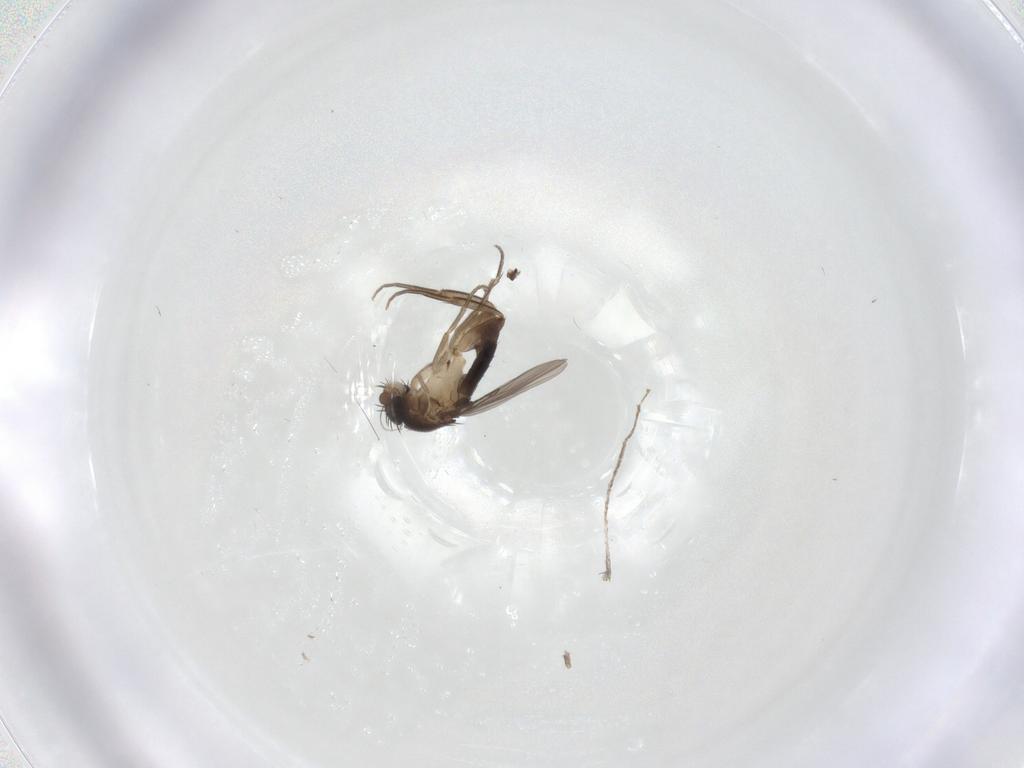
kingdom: Animalia
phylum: Arthropoda
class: Insecta
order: Diptera
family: Phoridae
